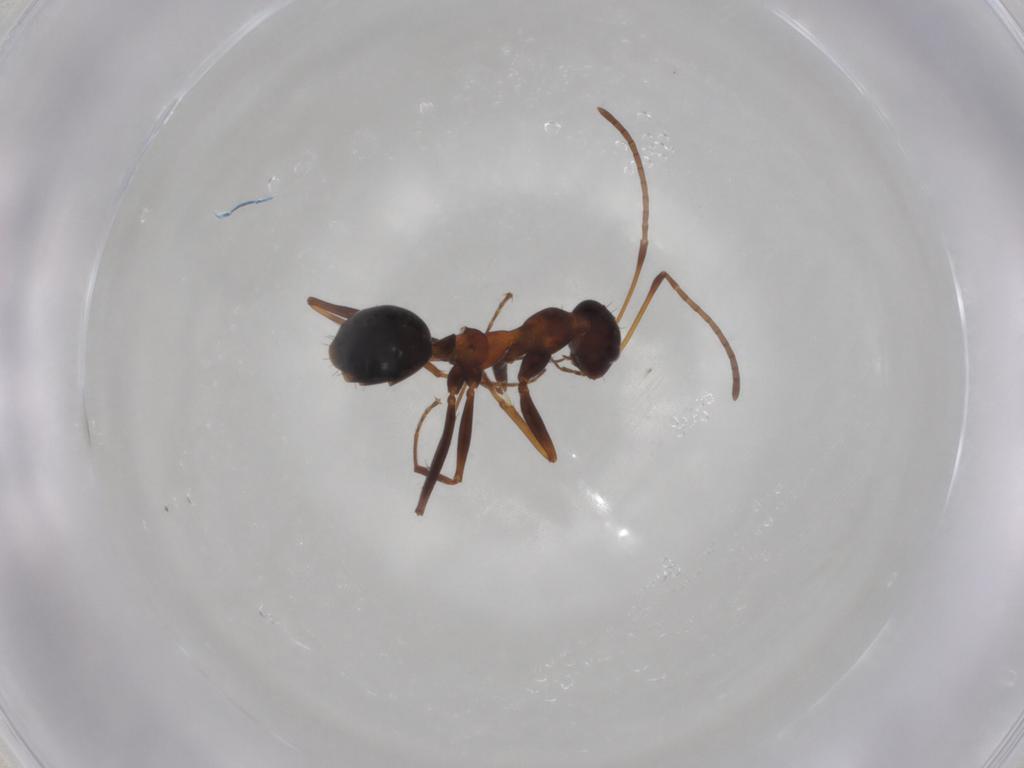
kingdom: Animalia
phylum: Arthropoda
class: Insecta
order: Hymenoptera
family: Formicidae
